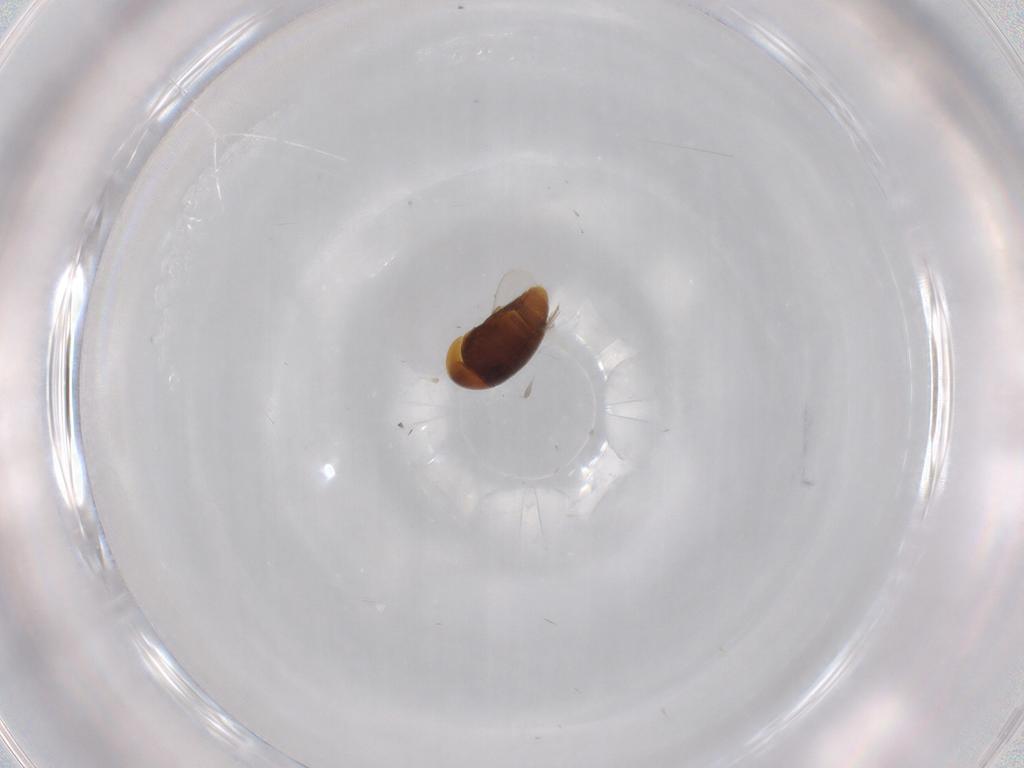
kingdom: Animalia
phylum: Arthropoda
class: Insecta
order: Coleoptera
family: Corylophidae
